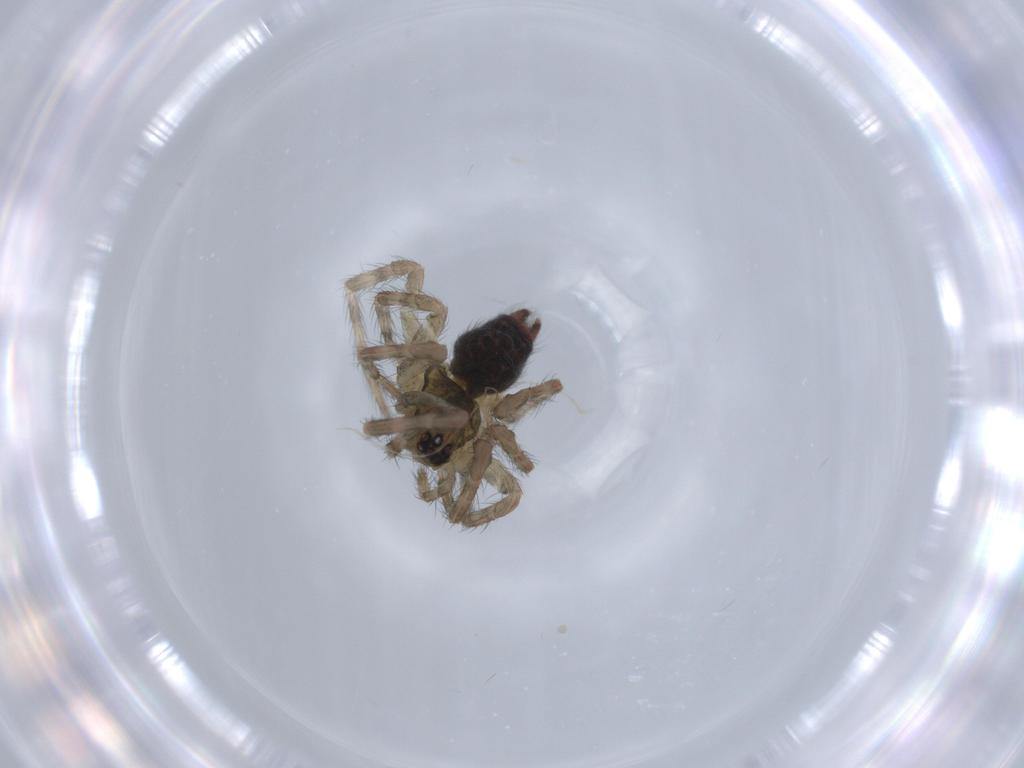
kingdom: Animalia
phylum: Arthropoda
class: Arachnida
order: Araneae
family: Agelenidae
